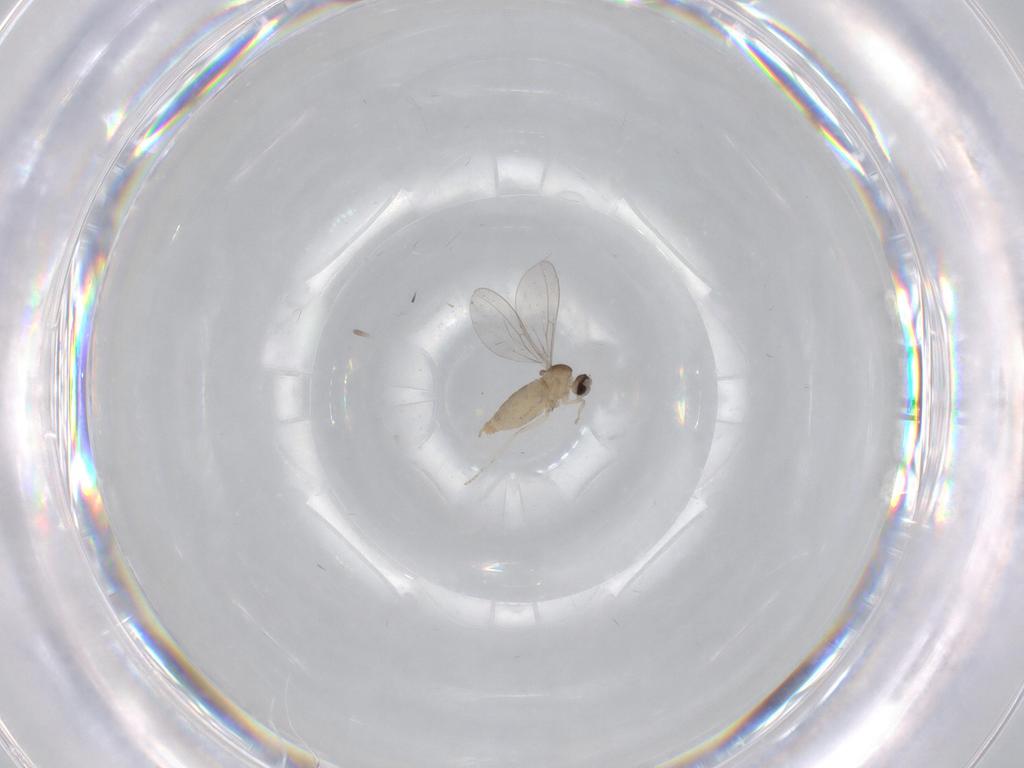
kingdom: Animalia
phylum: Arthropoda
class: Insecta
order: Diptera
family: Cecidomyiidae
